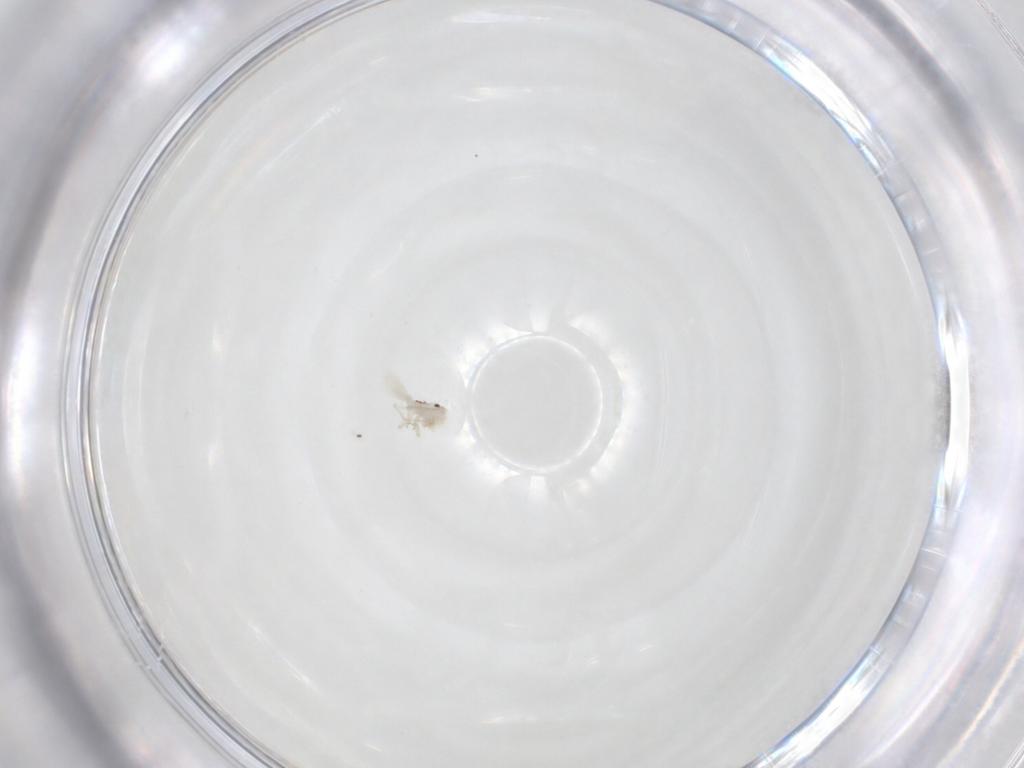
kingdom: Animalia
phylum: Arthropoda
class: Insecta
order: Psocodea
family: Caeciliusidae
